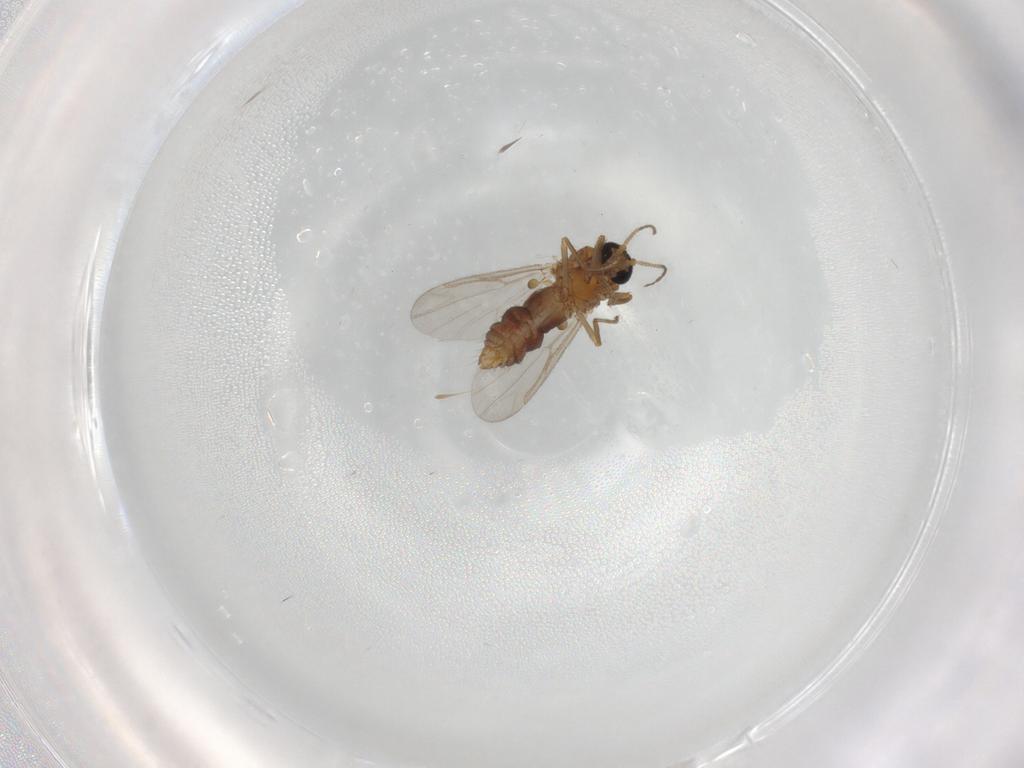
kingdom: Animalia
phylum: Arthropoda
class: Insecta
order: Diptera
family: Ceratopogonidae
